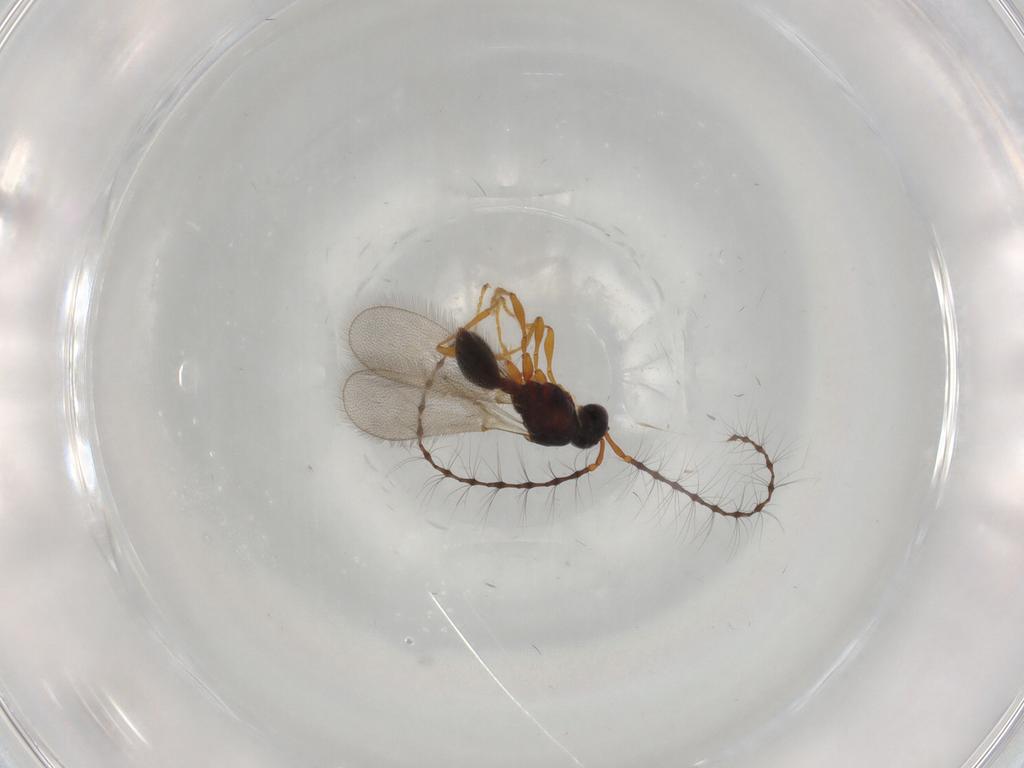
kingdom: Animalia
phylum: Arthropoda
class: Insecta
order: Hymenoptera
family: Diapriidae
